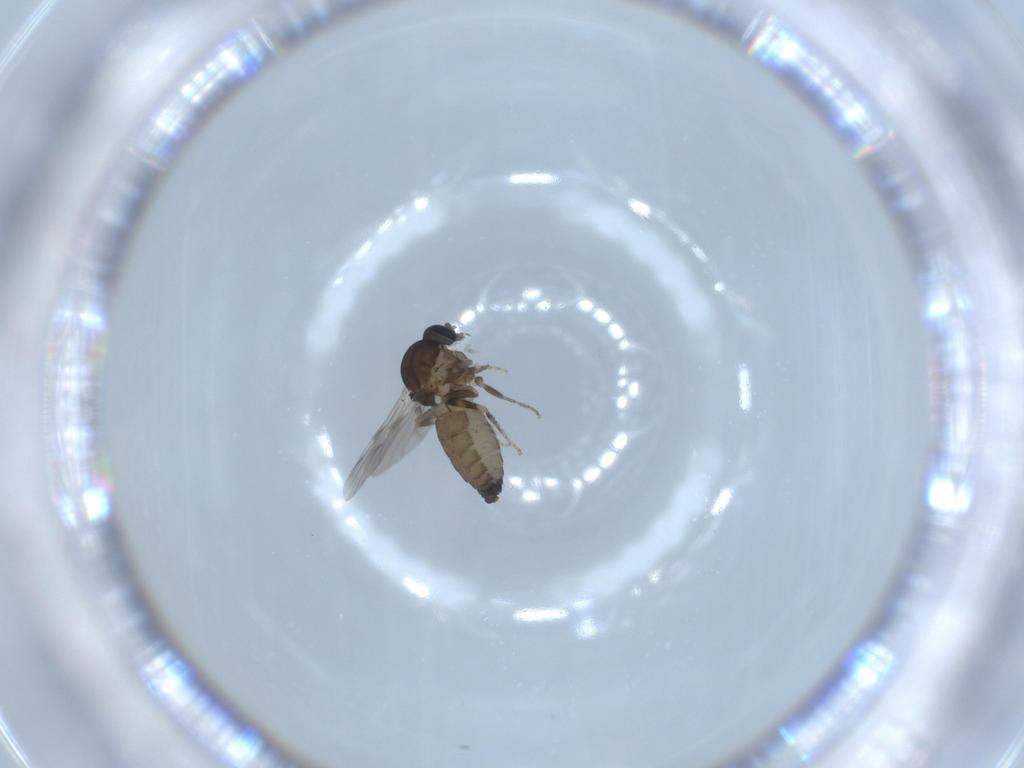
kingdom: Animalia
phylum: Arthropoda
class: Insecta
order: Diptera
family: Ceratopogonidae
